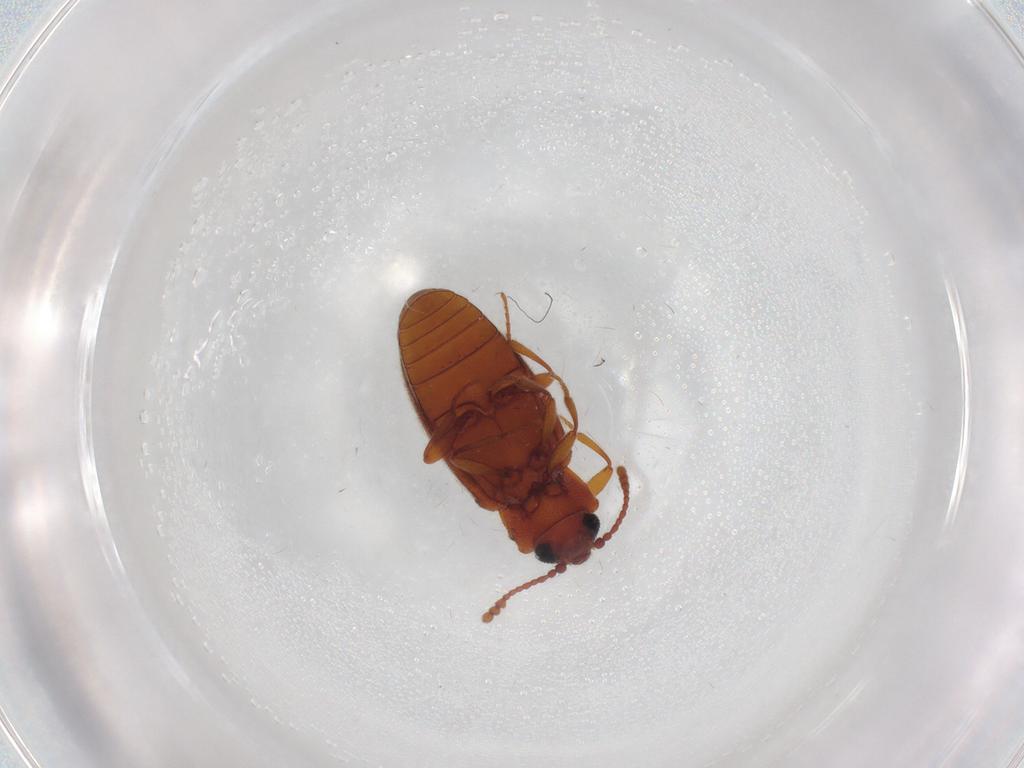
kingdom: Animalia
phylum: Arthropoda
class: Insecta
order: Coleoptera
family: Cryptophagidae
